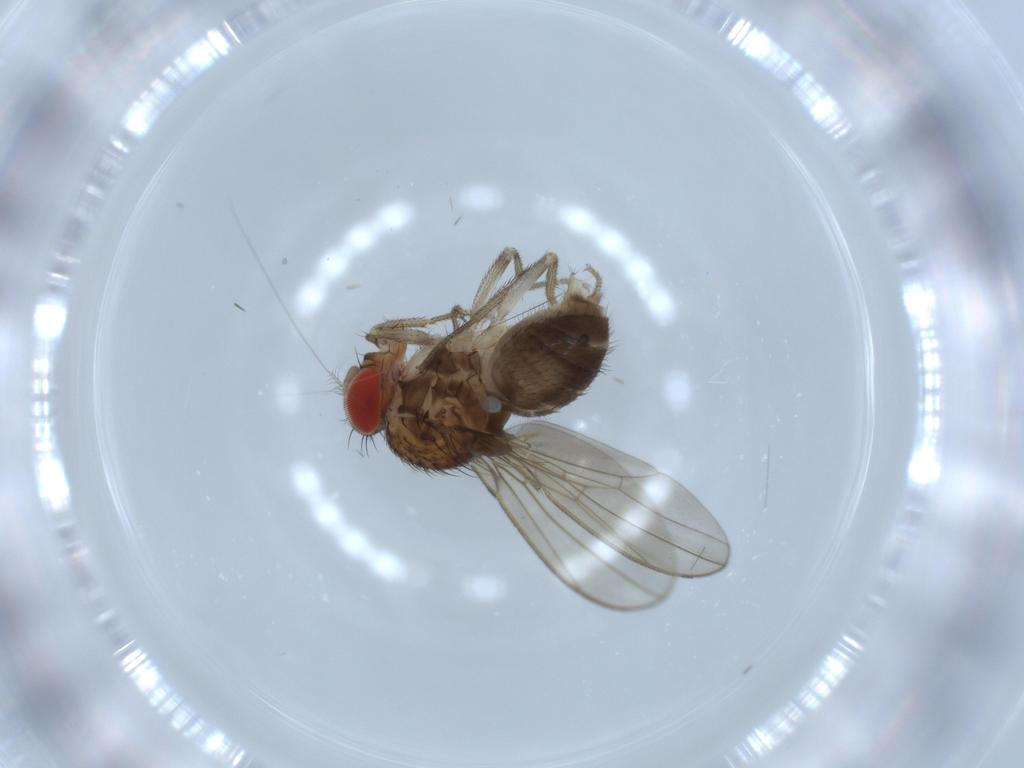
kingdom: Animalia
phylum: Arthropoda
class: Insecta
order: Diptera
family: Drosophilidae
